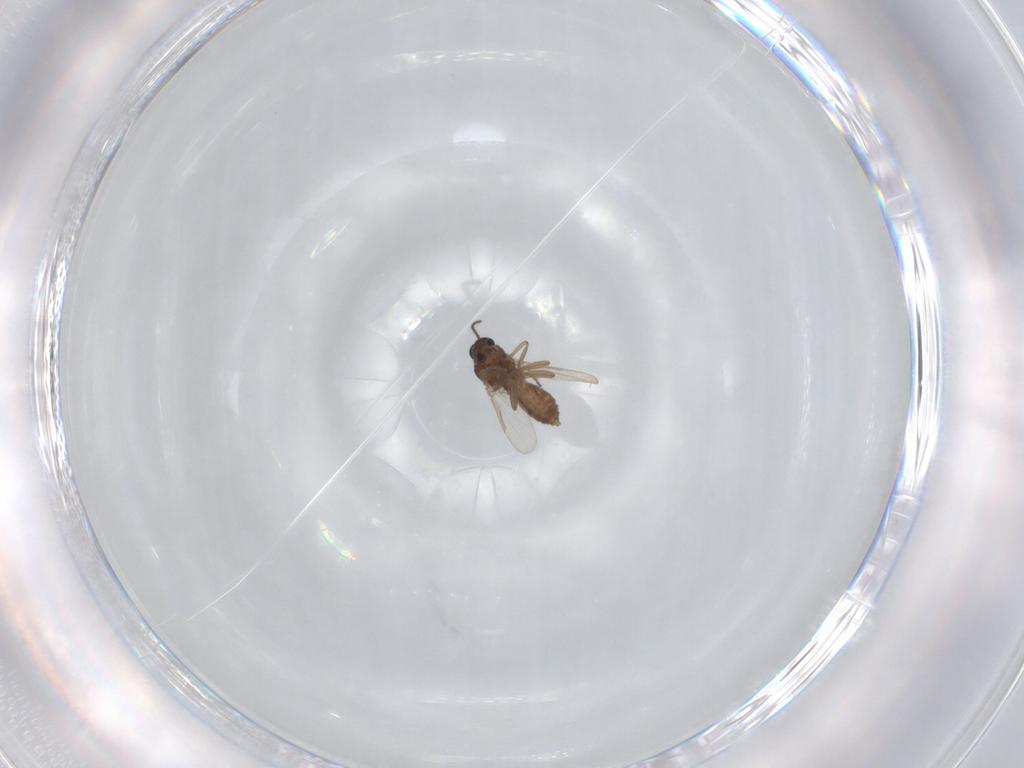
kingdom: Animalia
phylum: Arthropoda
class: Insecta
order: Diptera
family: Ceratopogonidae
